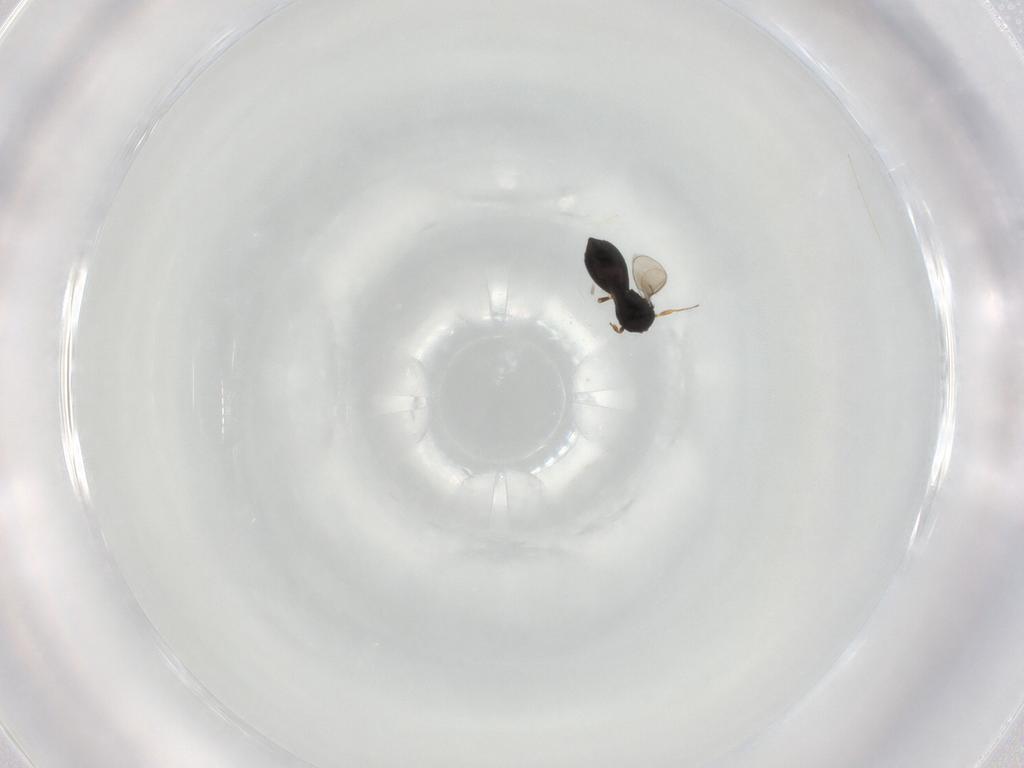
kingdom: Animalia
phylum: Arthropoda
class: Insecta
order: Hymenoptera
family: Scelionidae
